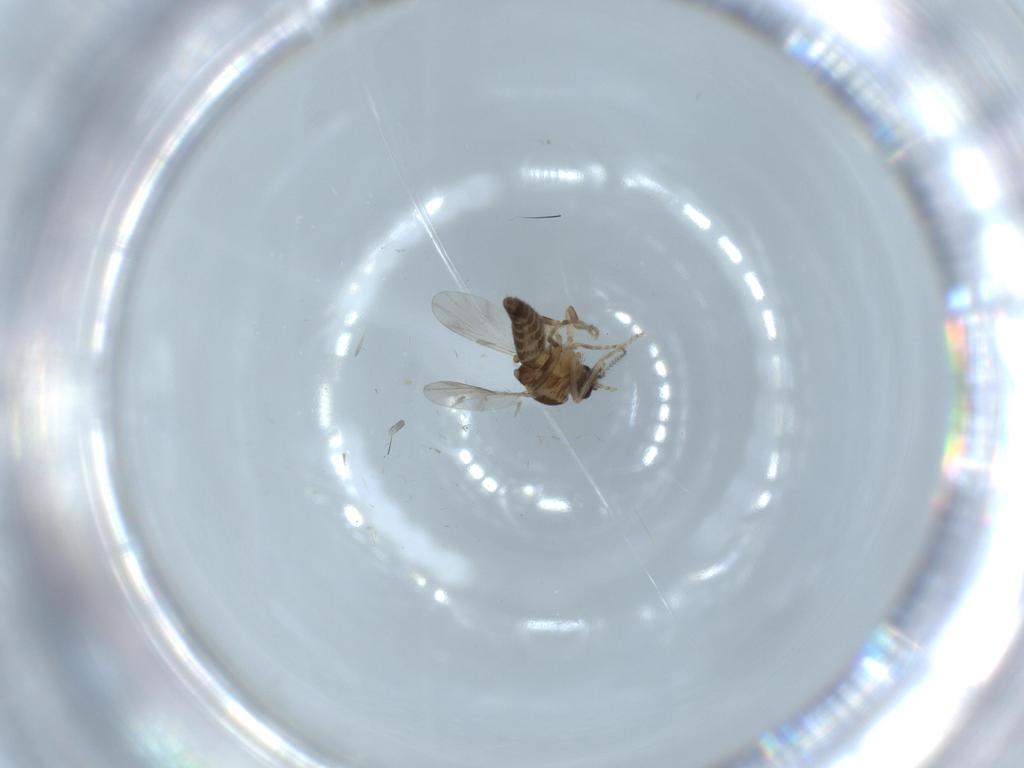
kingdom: Animalia
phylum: Arthropoda
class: Insecta
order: Diptera
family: Ceratopogonidae
